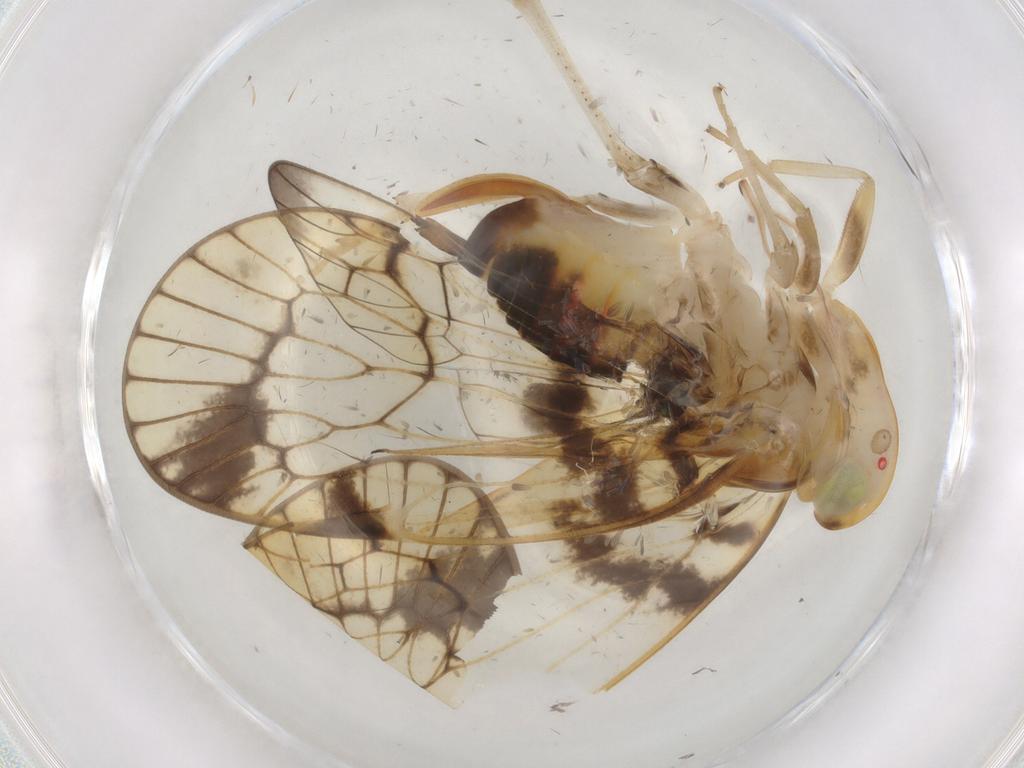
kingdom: Animalia
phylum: Arthropoda
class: Insecta
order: Hemiptera
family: Cixiidae
